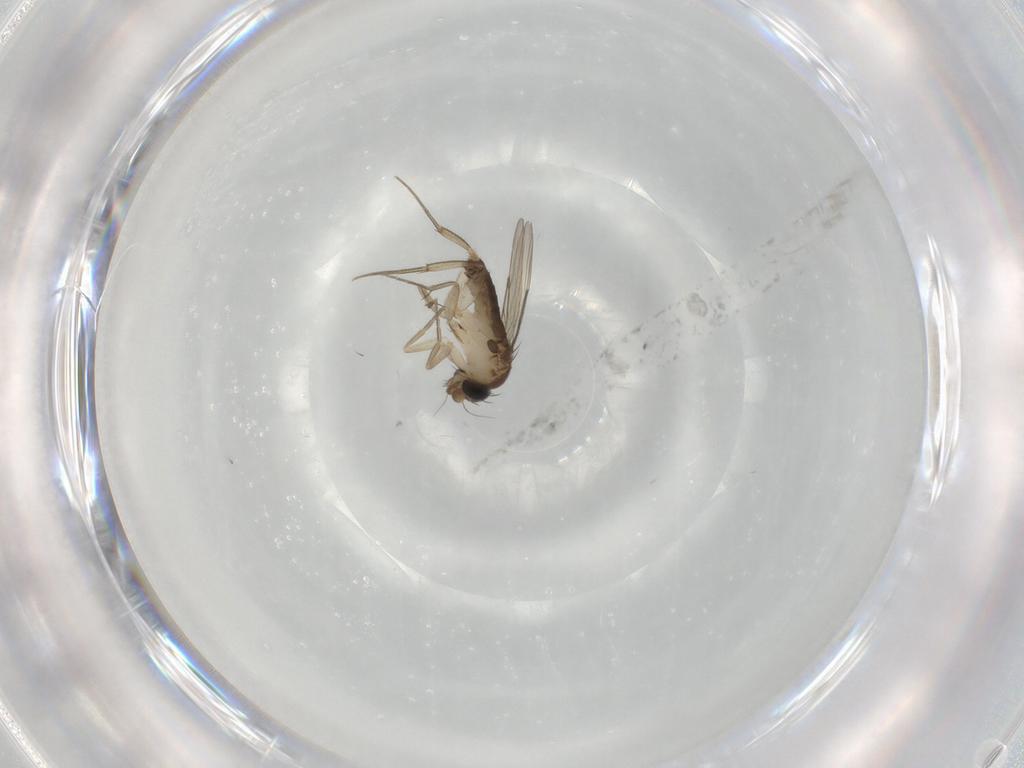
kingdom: Animalia
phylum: Arthropoda
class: Insecta
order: Diptera
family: Phoridae
